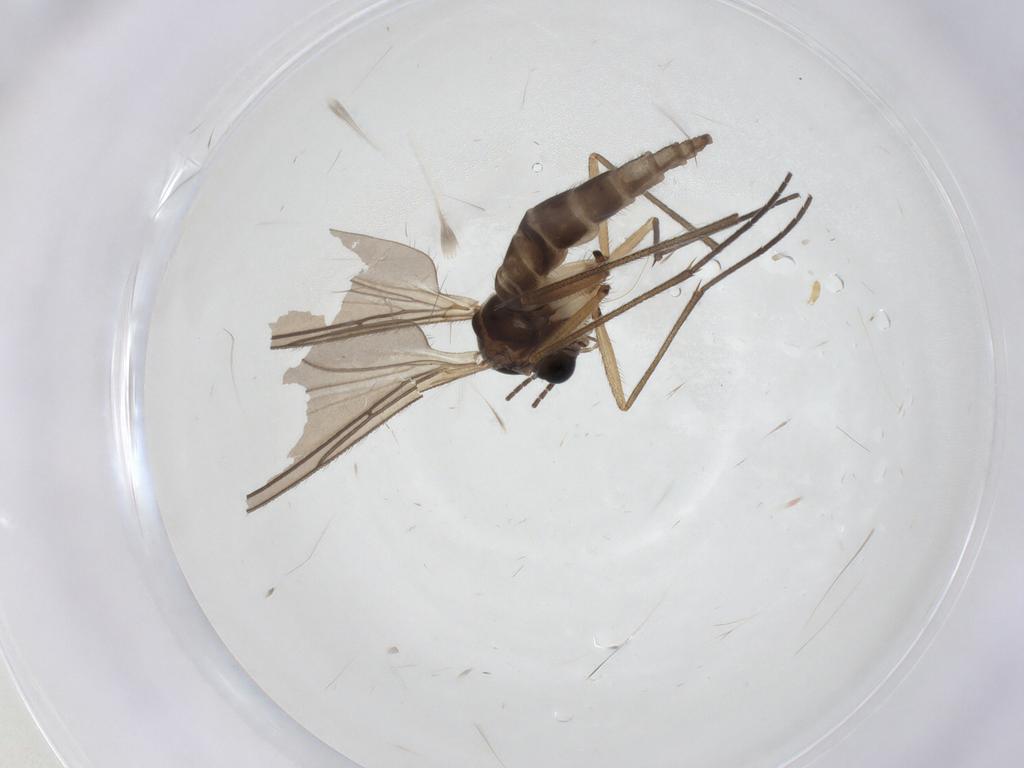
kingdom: Animalia
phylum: Arthropoda
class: Insecta
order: Diptera
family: Sciaridae
